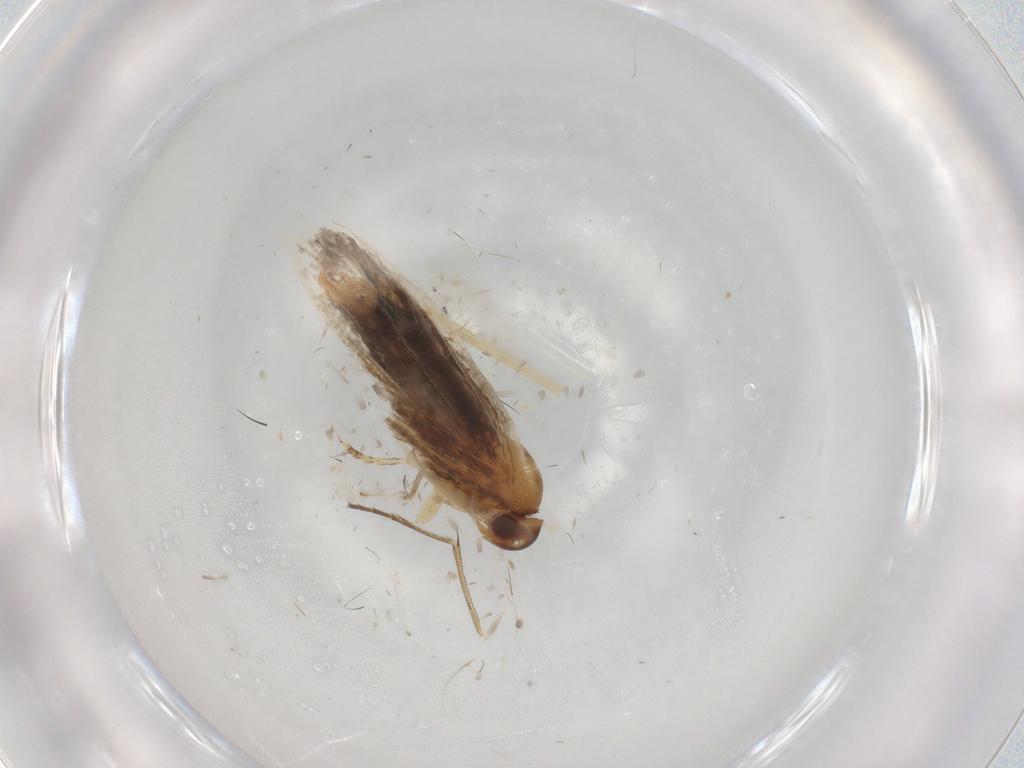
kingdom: Animalia
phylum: Arthropoda
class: Insecta
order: Lepidoptera
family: Oecophoridae
